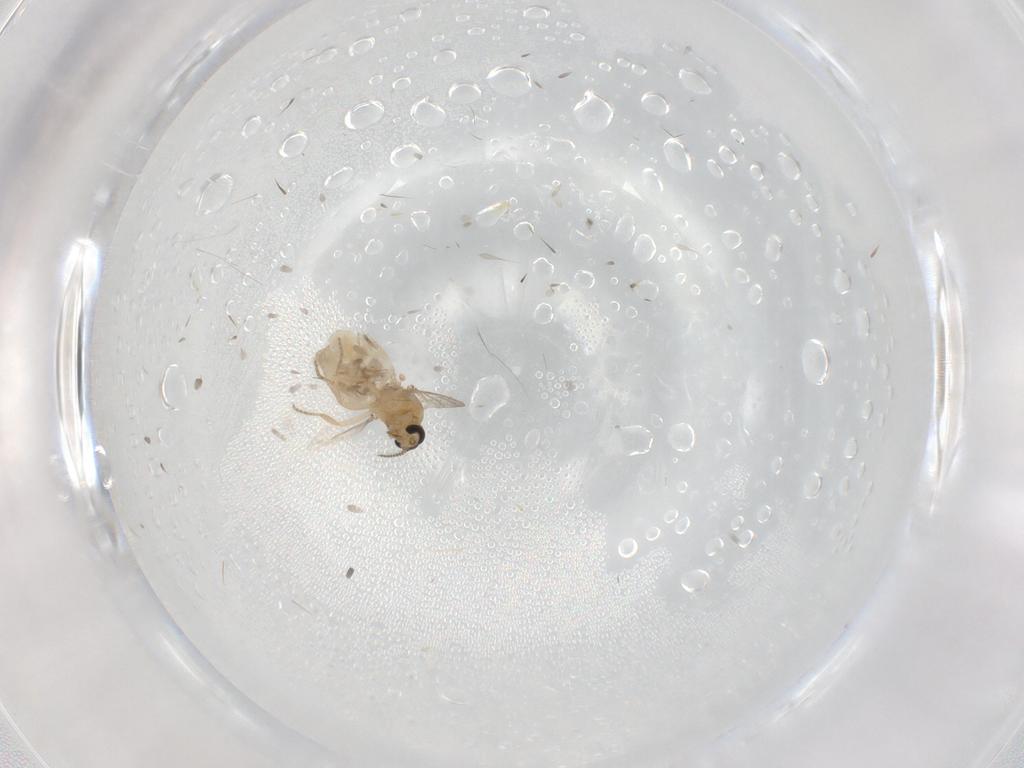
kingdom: Animalia
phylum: Arthropoda
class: Insecta
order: Diptera
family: Ceratopogonidae
